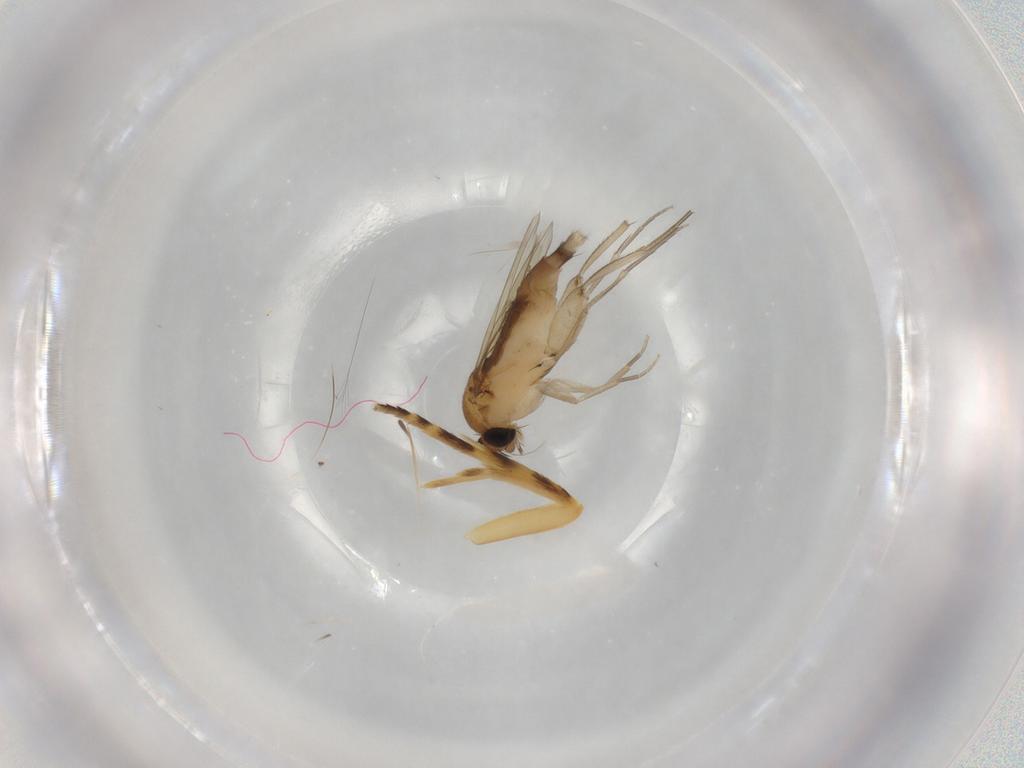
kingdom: Animalia
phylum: Arthropoda
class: Insecta
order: Diptera
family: Phoridae
